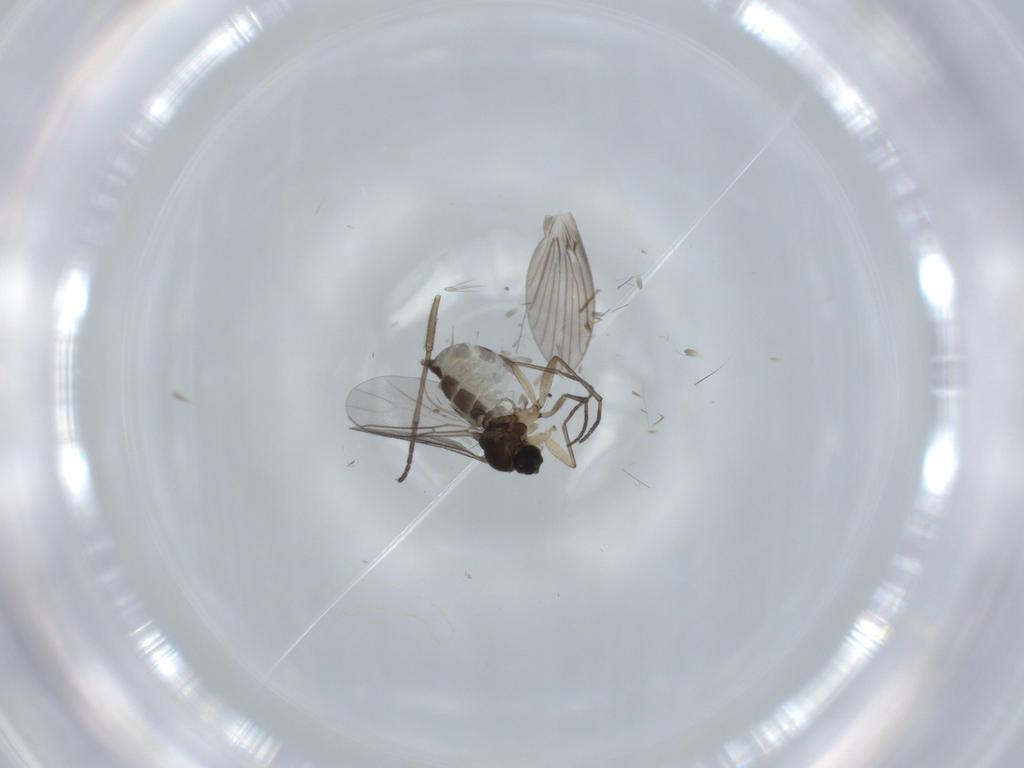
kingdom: Animalia
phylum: Arthropoda
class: Insecta
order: Diptera
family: Sciaridae
